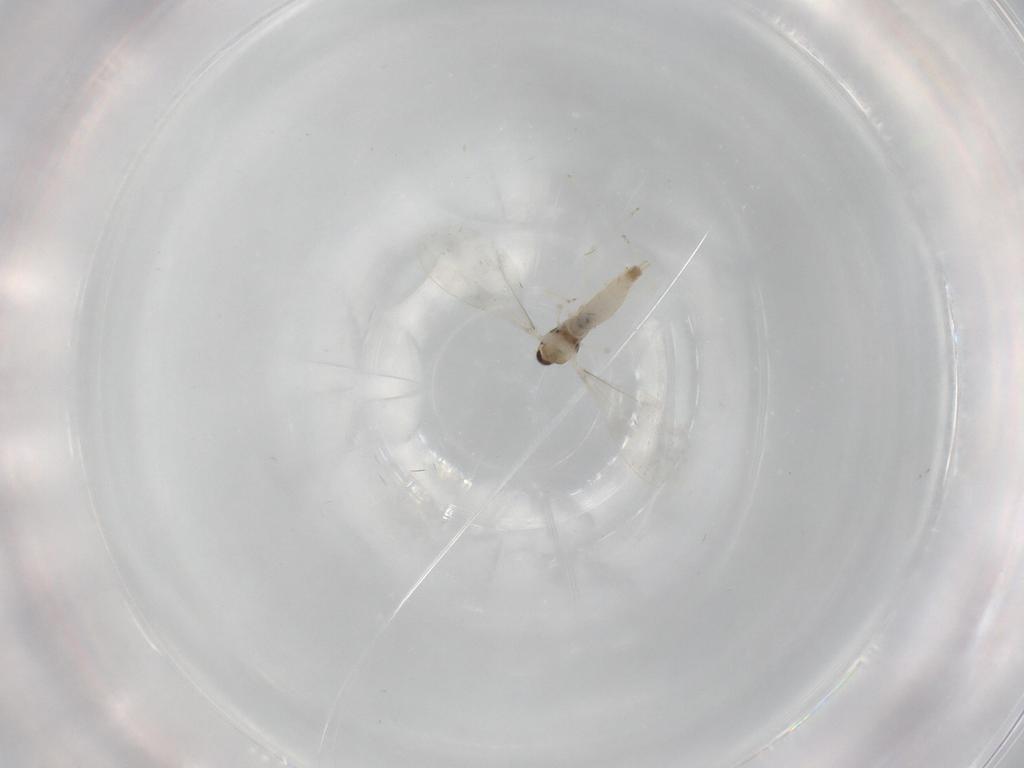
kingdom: Animalia
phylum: Arthropoda
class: Insecta
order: Diptera
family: Cecidomyiidae
